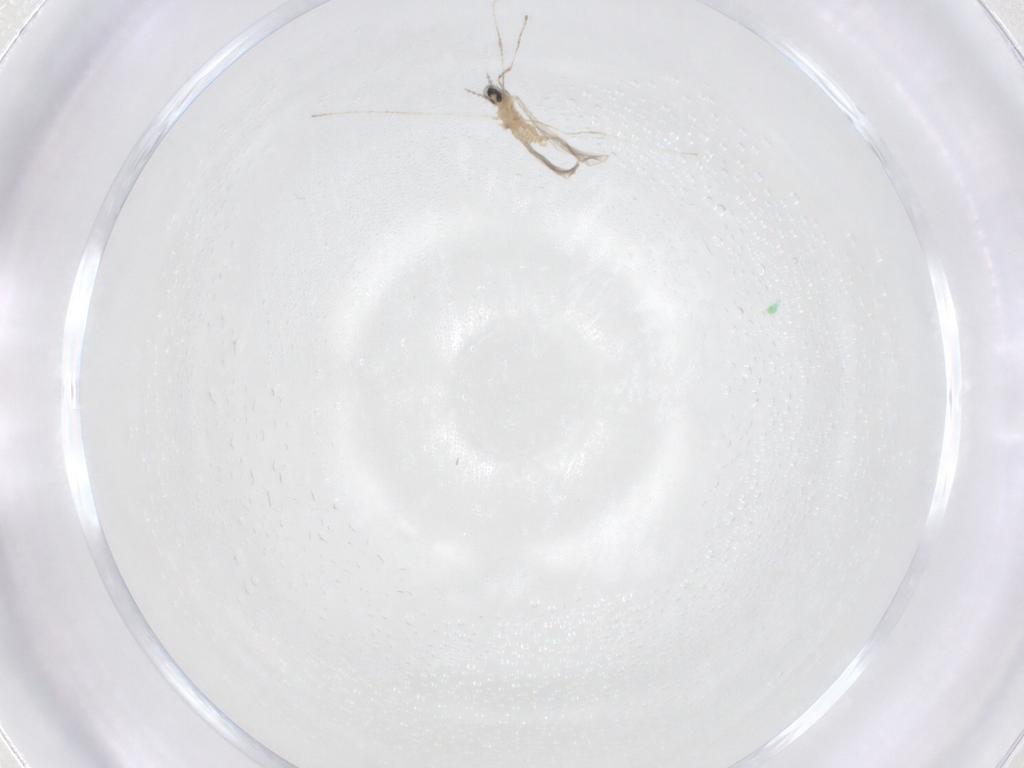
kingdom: Animalia
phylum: Arthropoda
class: Insecta
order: Diptera
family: Cecidomyiidae
